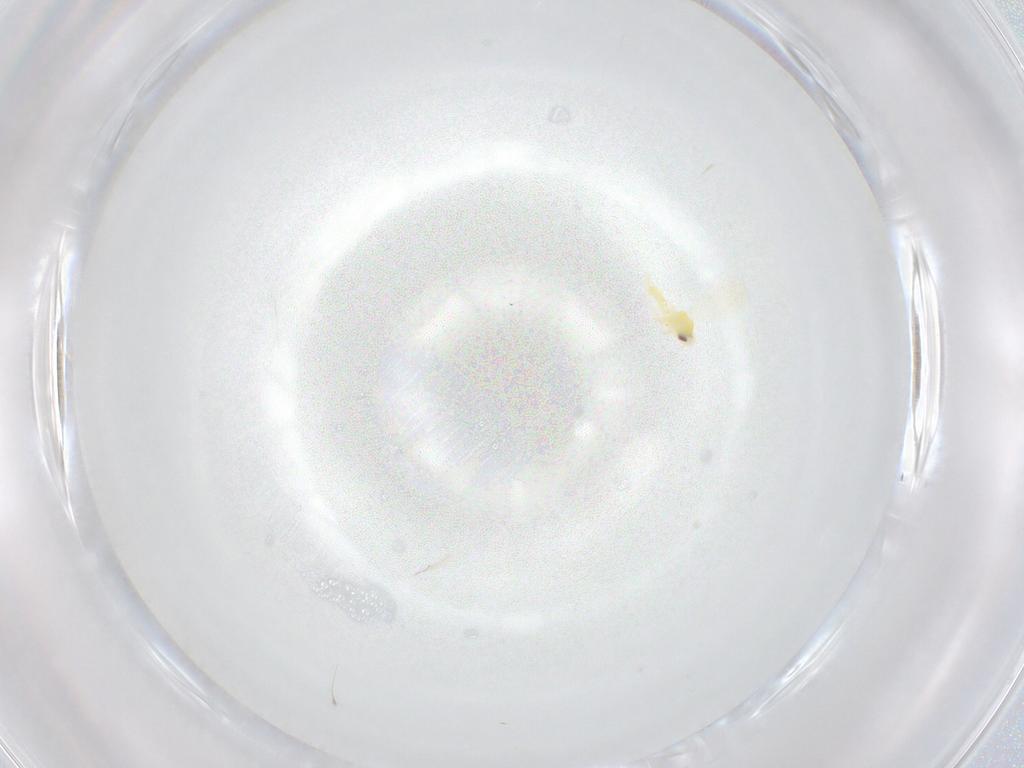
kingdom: Animalia
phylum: Arthropoda
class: Insecta
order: Hemiptera
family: Aleyrodidae
